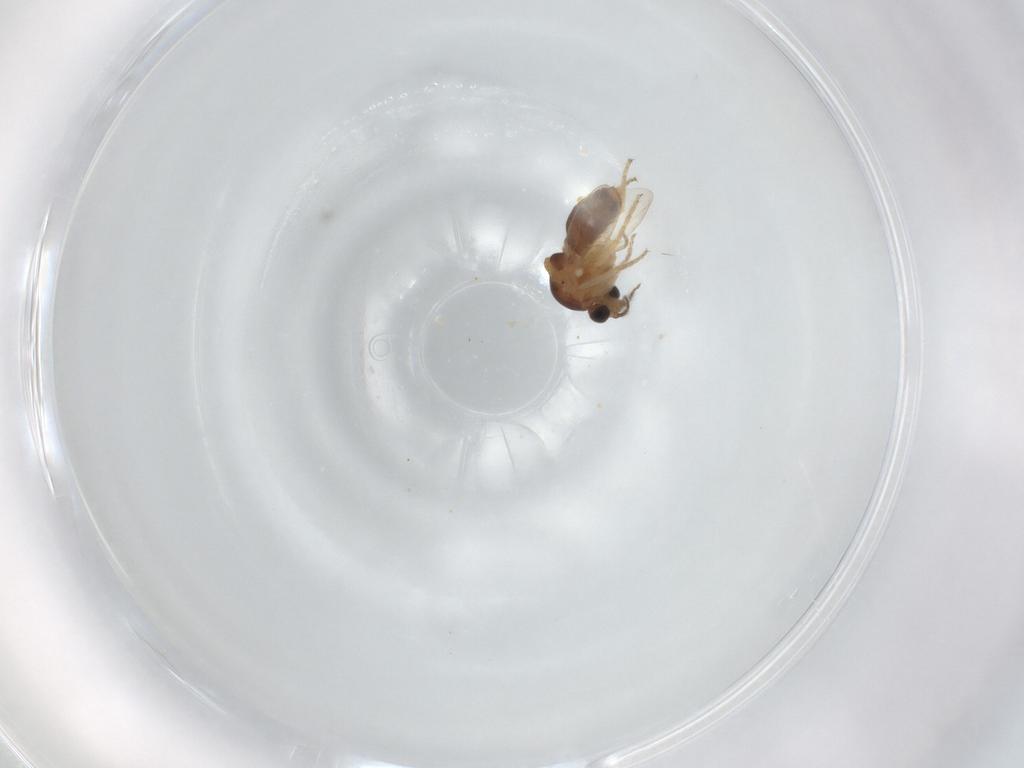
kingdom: Animalia
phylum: Arthropoda
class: Insecta
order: Diptera
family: Ceratopogonidae
